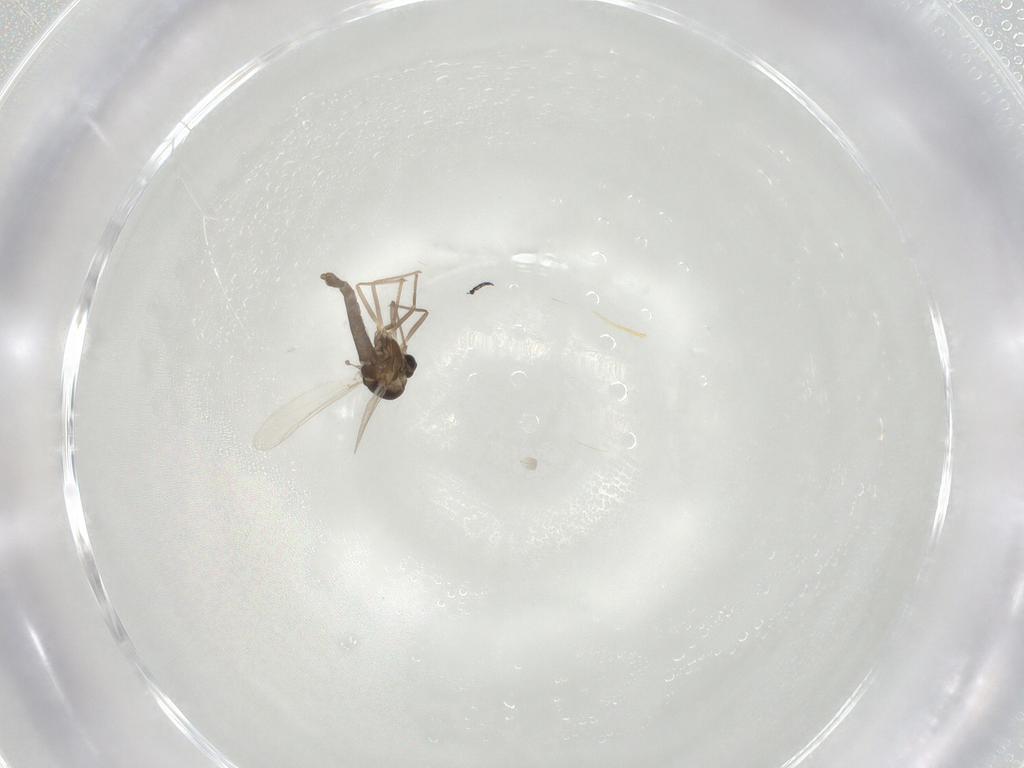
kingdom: Animalia
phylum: Arthropoda
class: Insecta
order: Diptera
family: Chironomidae
